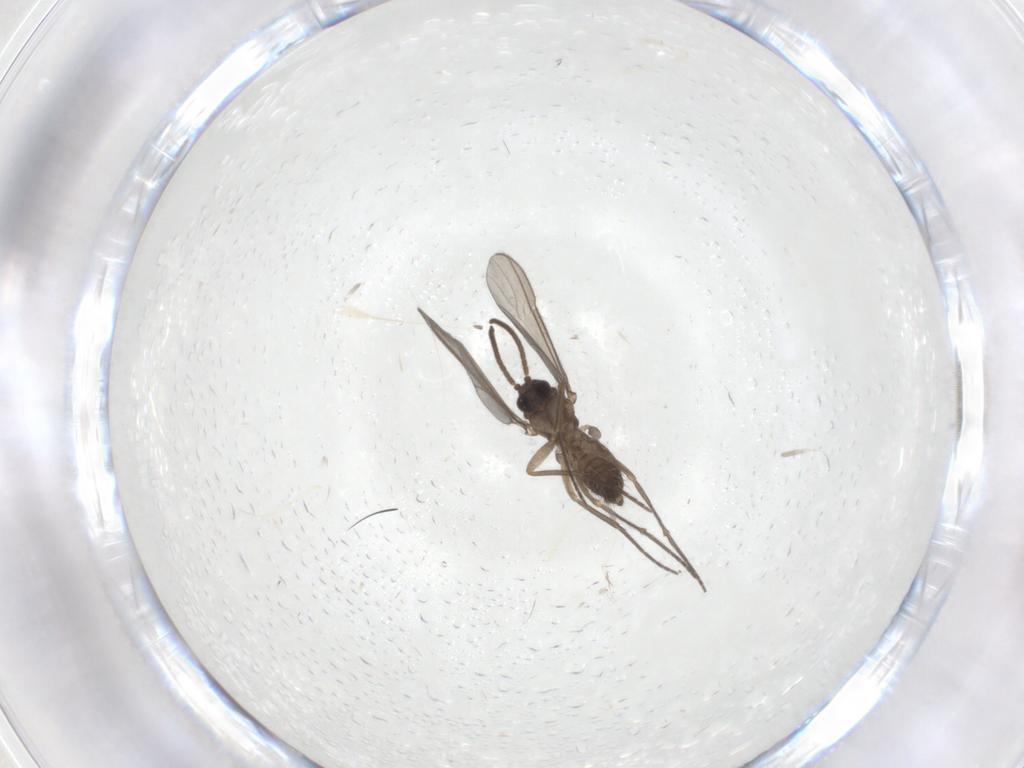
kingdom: Animalia
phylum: Arthropoda
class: Insecta
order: Diptera
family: Sciaridae
